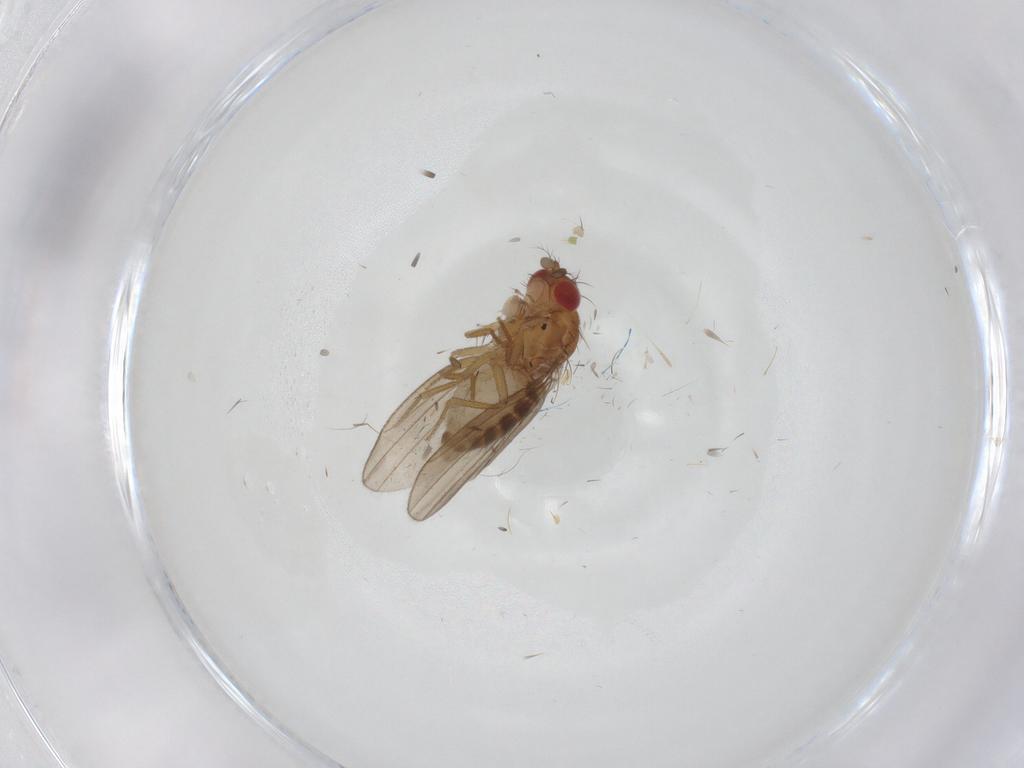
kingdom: Animalia
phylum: Arthropoda
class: Insecta
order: Diptera
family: Drosophilidae
